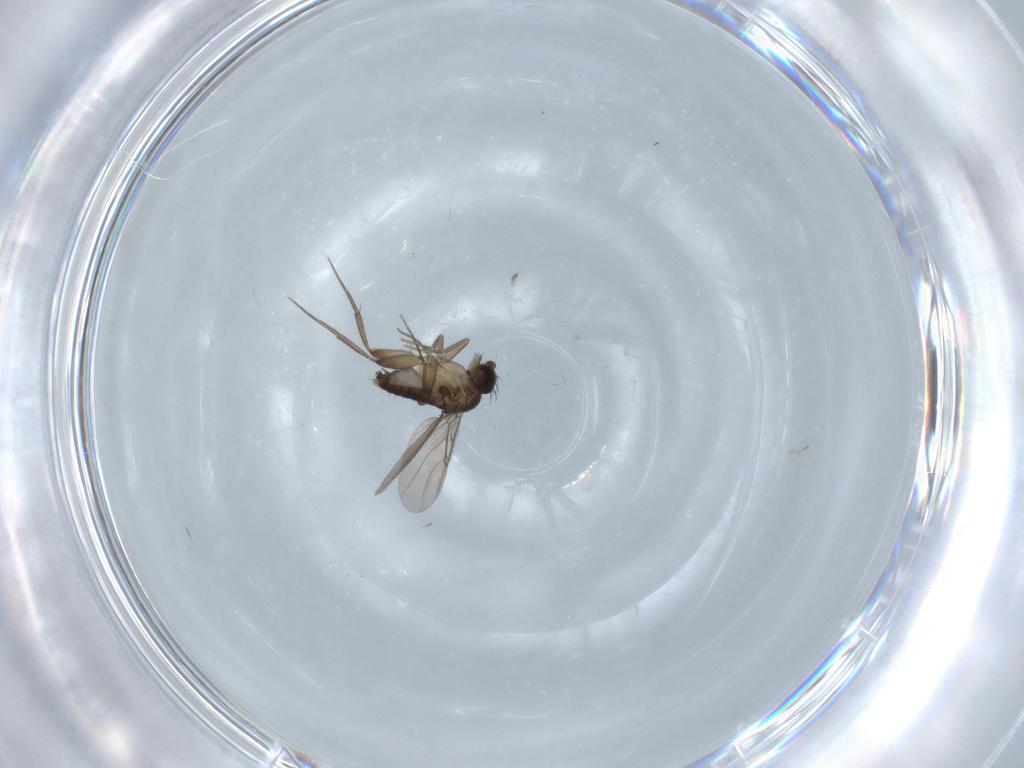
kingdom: Animalia
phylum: Arthropoda
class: Insecta
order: Diptera
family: Phoridae
